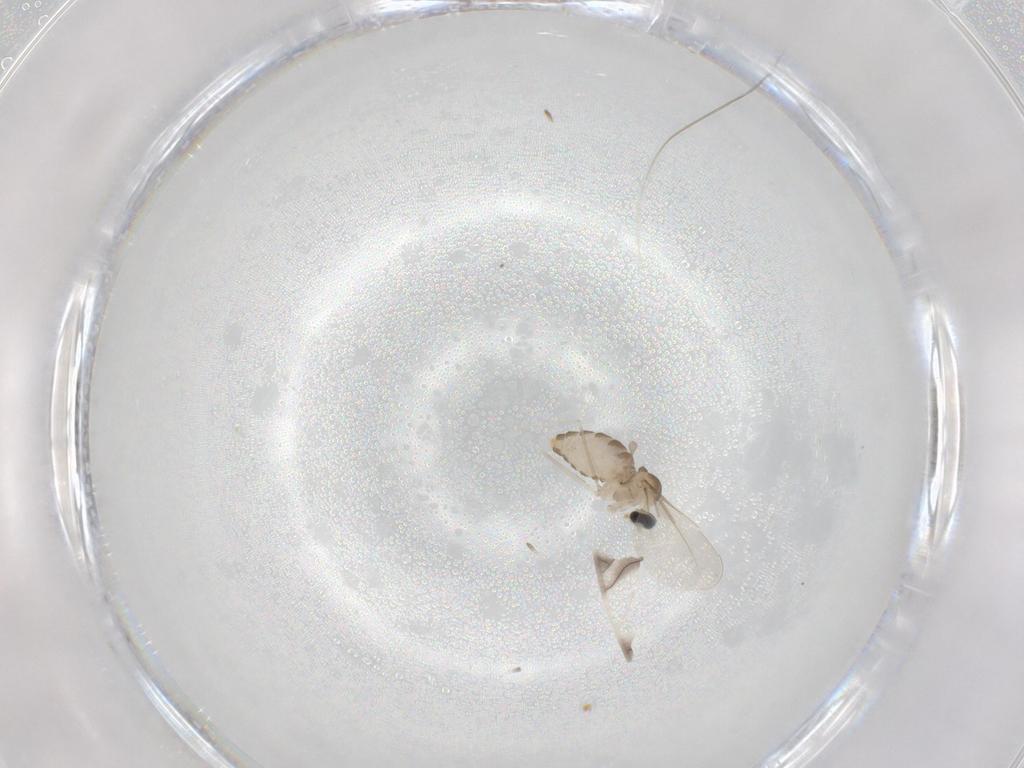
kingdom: Animalia
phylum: Arthropoda
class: Insecta
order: Diptera
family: Cecidomyiidae
